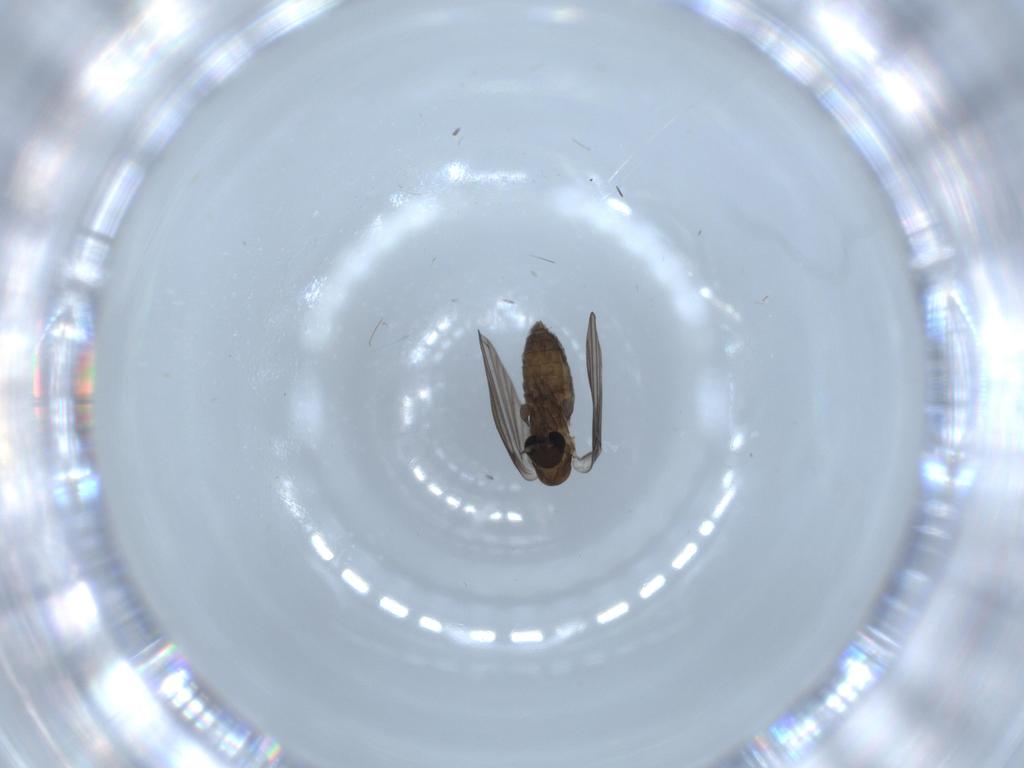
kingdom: Animalia
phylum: Arthropoda
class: Insecta
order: Diptera
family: Psychodidae
